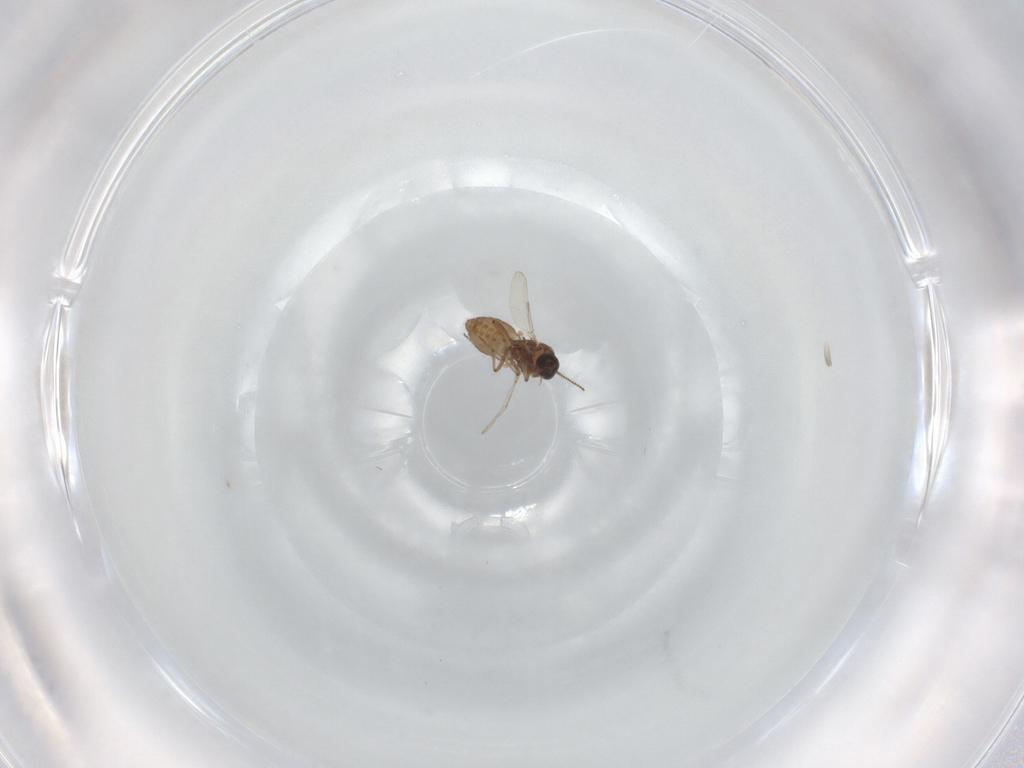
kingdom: Animalia
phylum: Arthropoda
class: Insecta
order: Diptera
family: Ceratopogonidae
